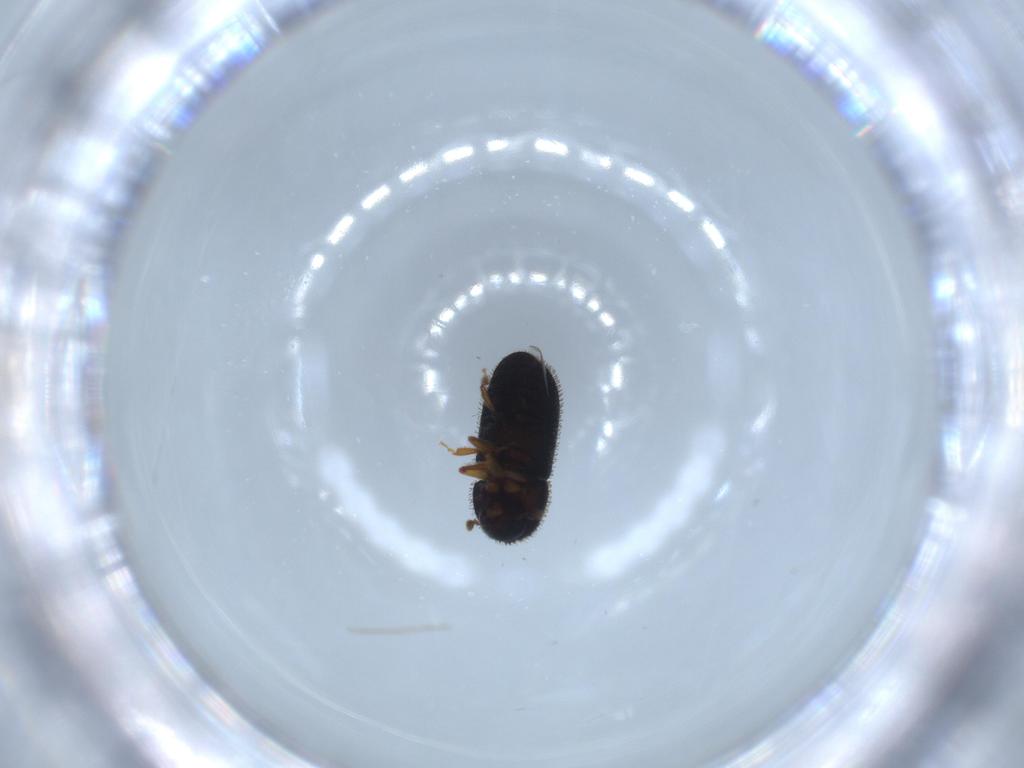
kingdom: Animalia
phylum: Arthropoda
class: Insecta
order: Coleoptera
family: Curculionidae
